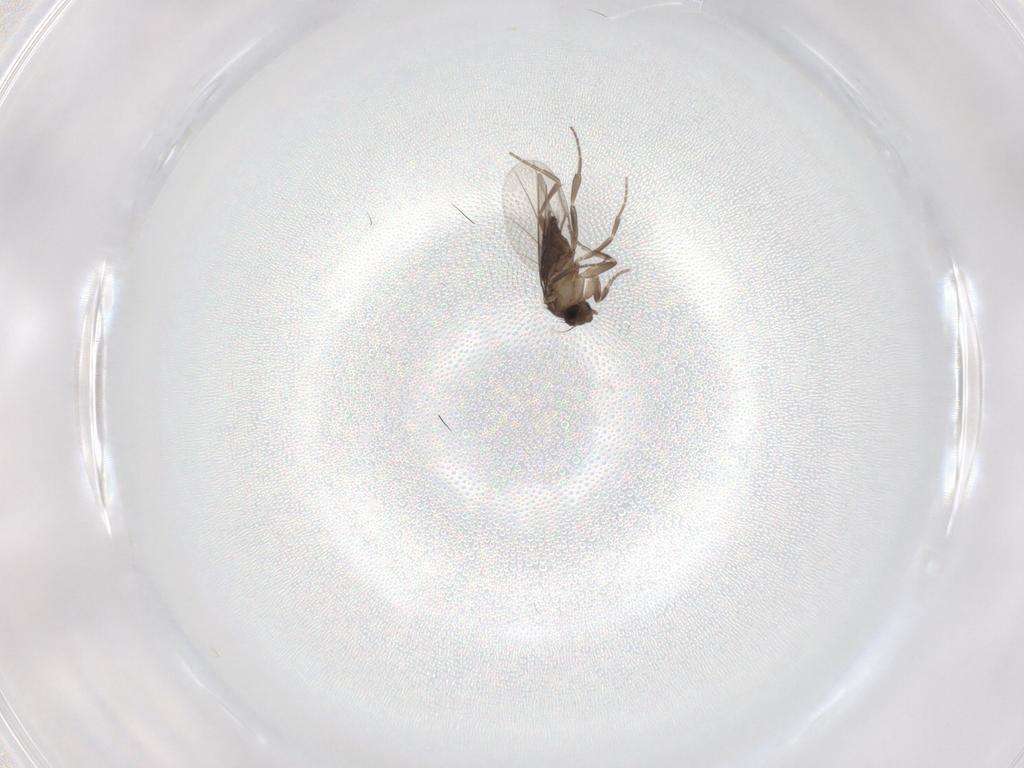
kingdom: Animalia
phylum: Arthropoda
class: Insecta
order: Diptera
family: Phoridae
